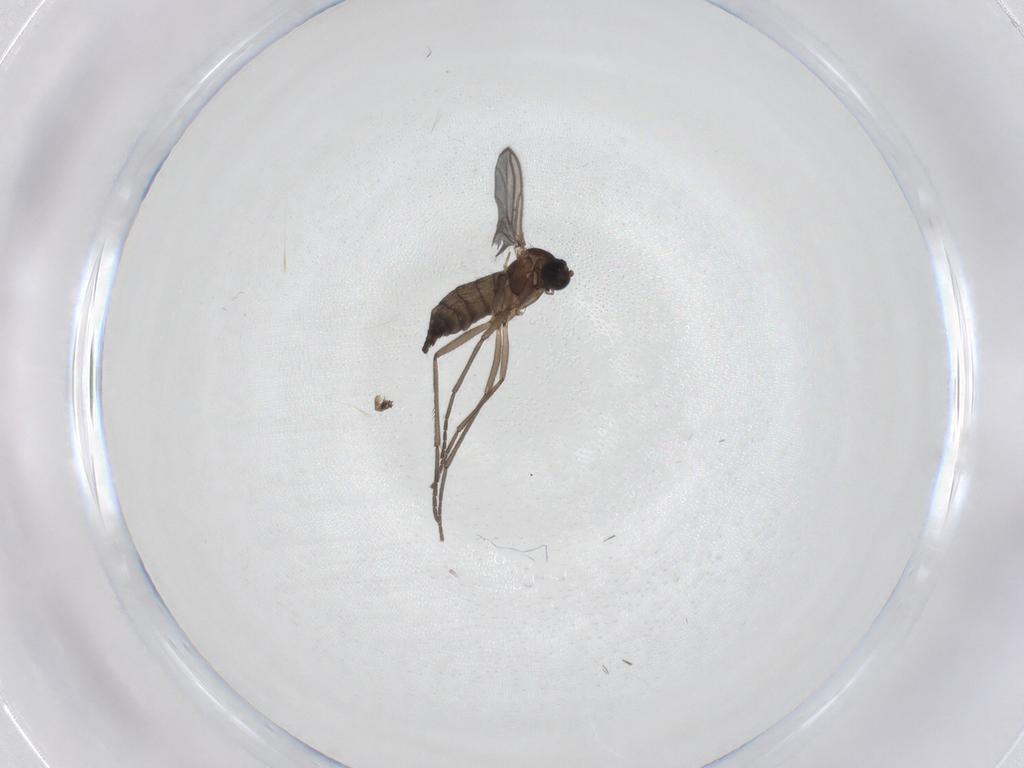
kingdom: Animalia
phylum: Arthropoda
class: Insecta
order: Diptera
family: Sciaridae
